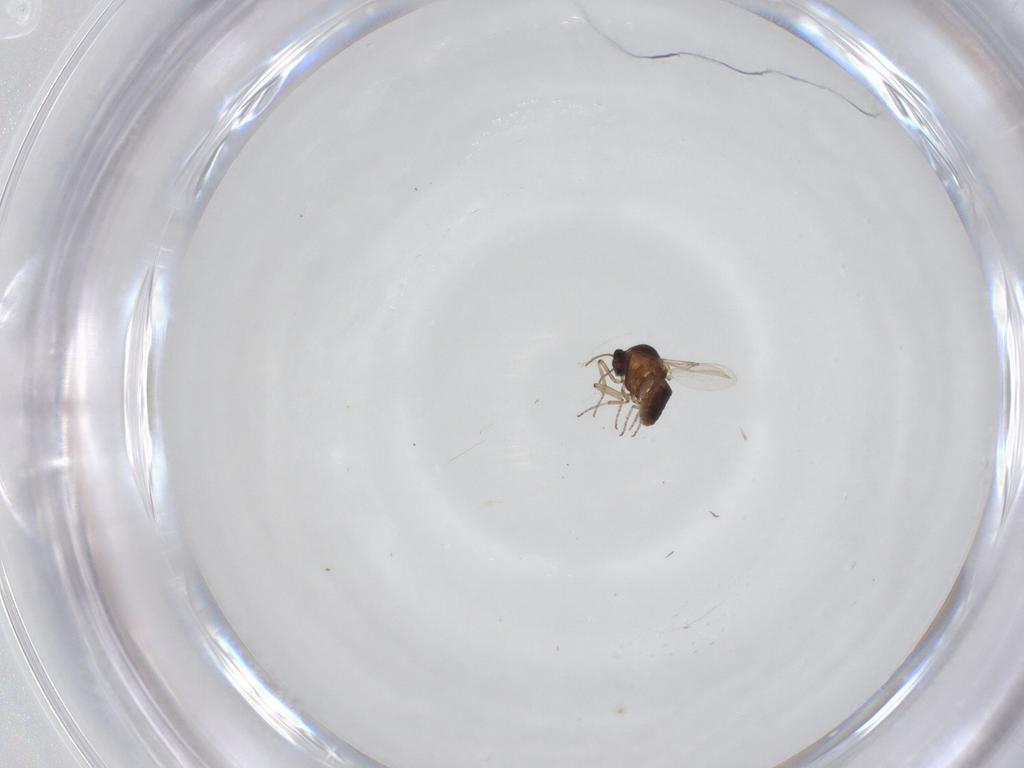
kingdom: Animalia
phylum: Arthropoda
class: Insecta
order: Diptera
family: Ceratopogonidae
